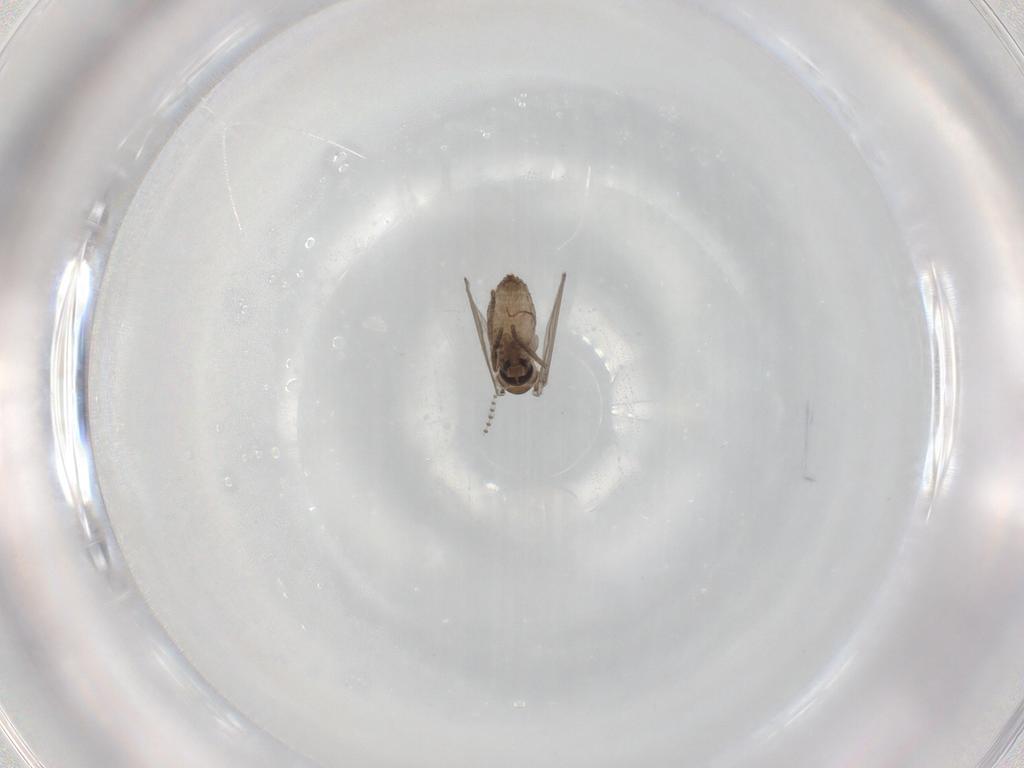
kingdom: Animalia
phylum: Arthropoda
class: Insecta
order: Diptera
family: Psychodidae
